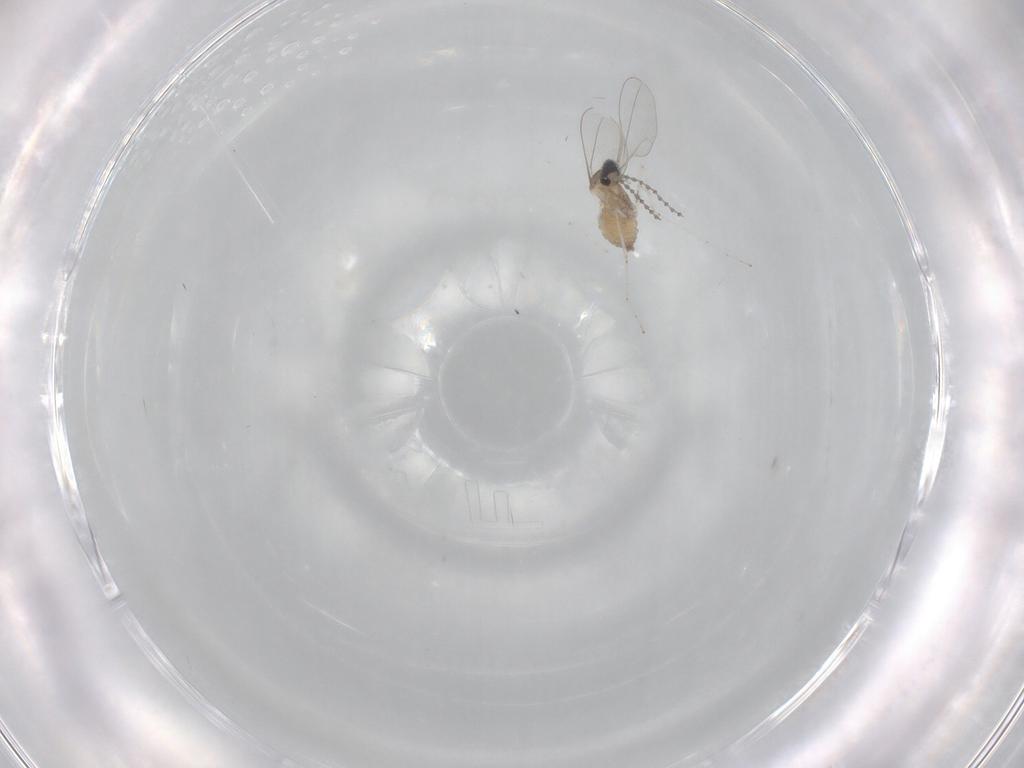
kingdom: Animalia
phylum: Arthropoda
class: Insecta
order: Diptera
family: Cecidomyiidae
